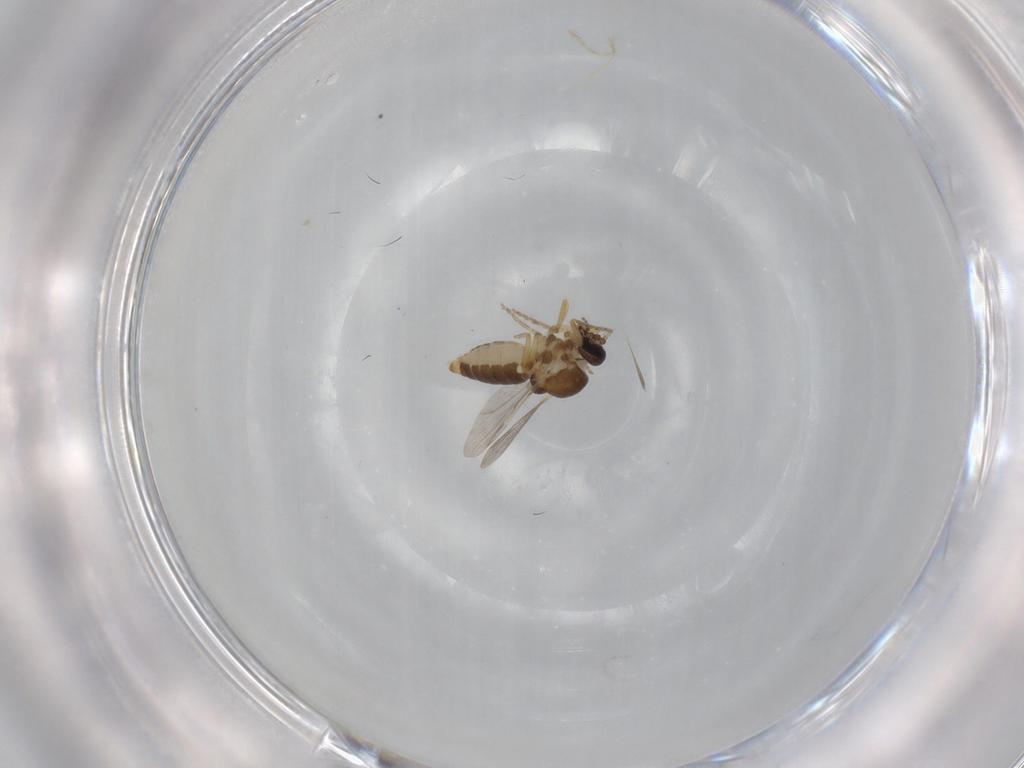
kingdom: Animalia
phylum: Arthropoda
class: Insecta
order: Diptera
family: Ceratopogonidae
